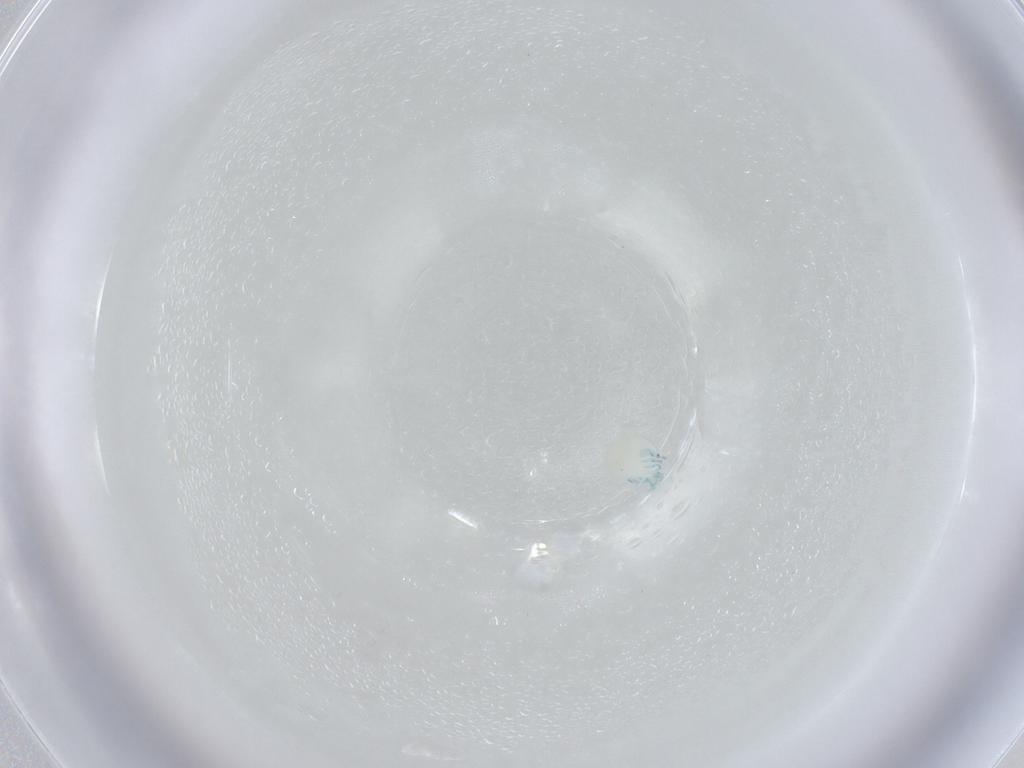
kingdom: Animalia
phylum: Arthropoda
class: Arachnida
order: Trombidiformes
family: Arrenuridae
